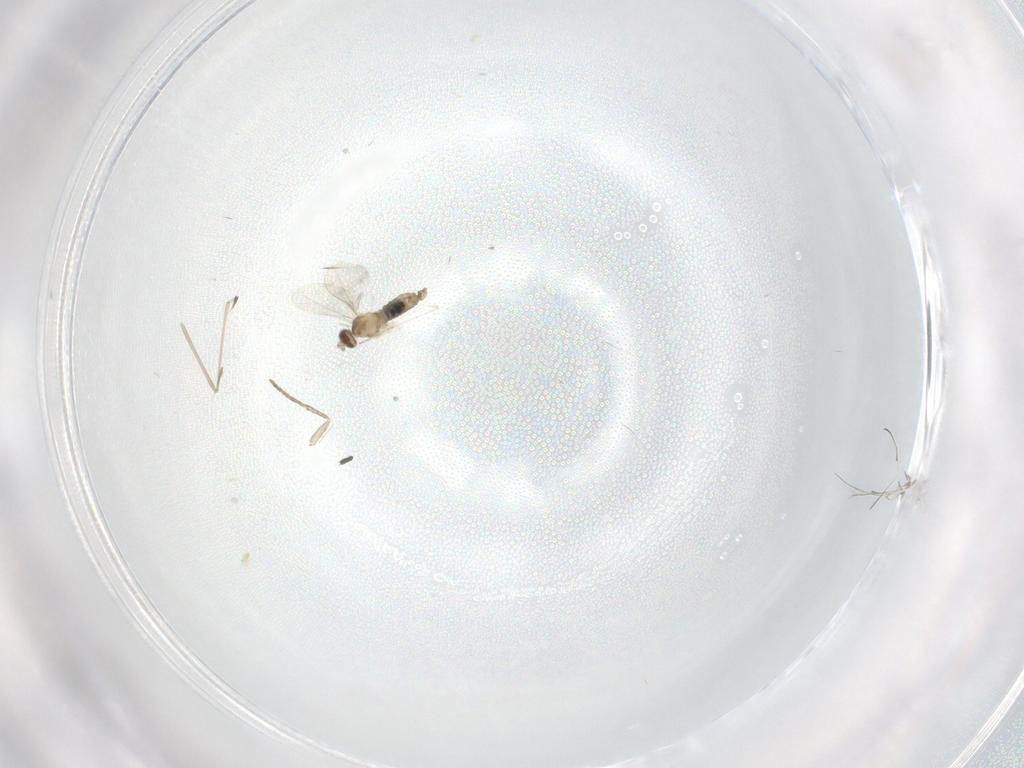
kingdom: Animalia
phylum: Arthropoda
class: Insecta
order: Diptera
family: Cecidomyiidae
